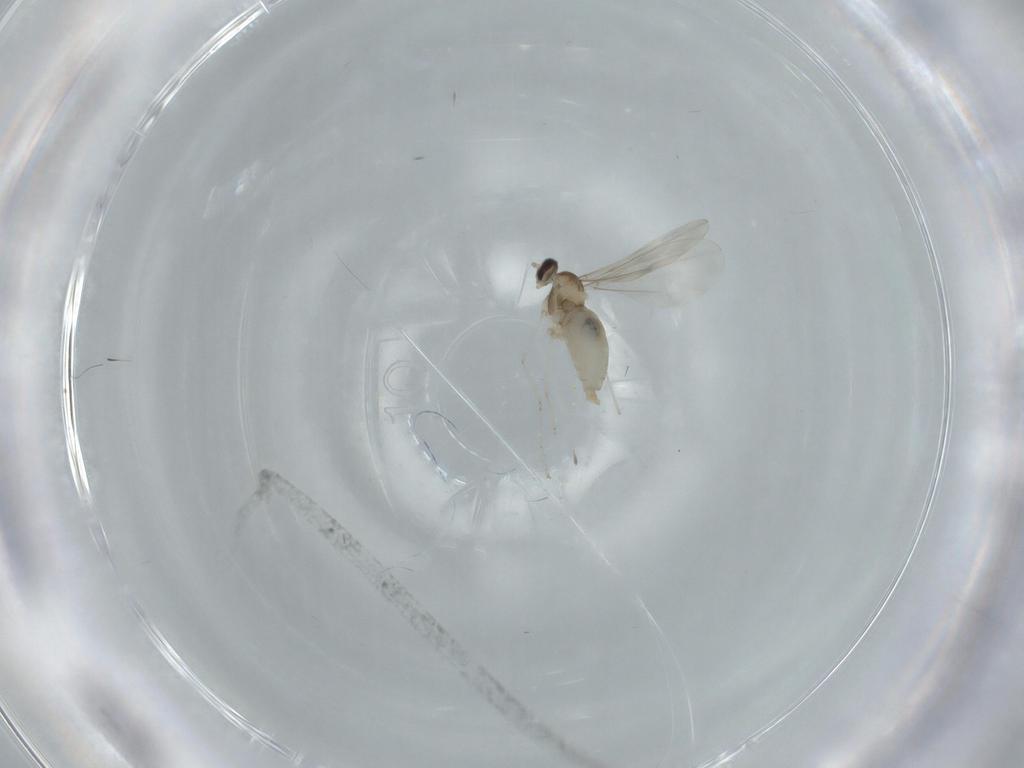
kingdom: Animalia
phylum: Arthropoda
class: Insecta
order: Diptera
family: Cecidomyiidae
